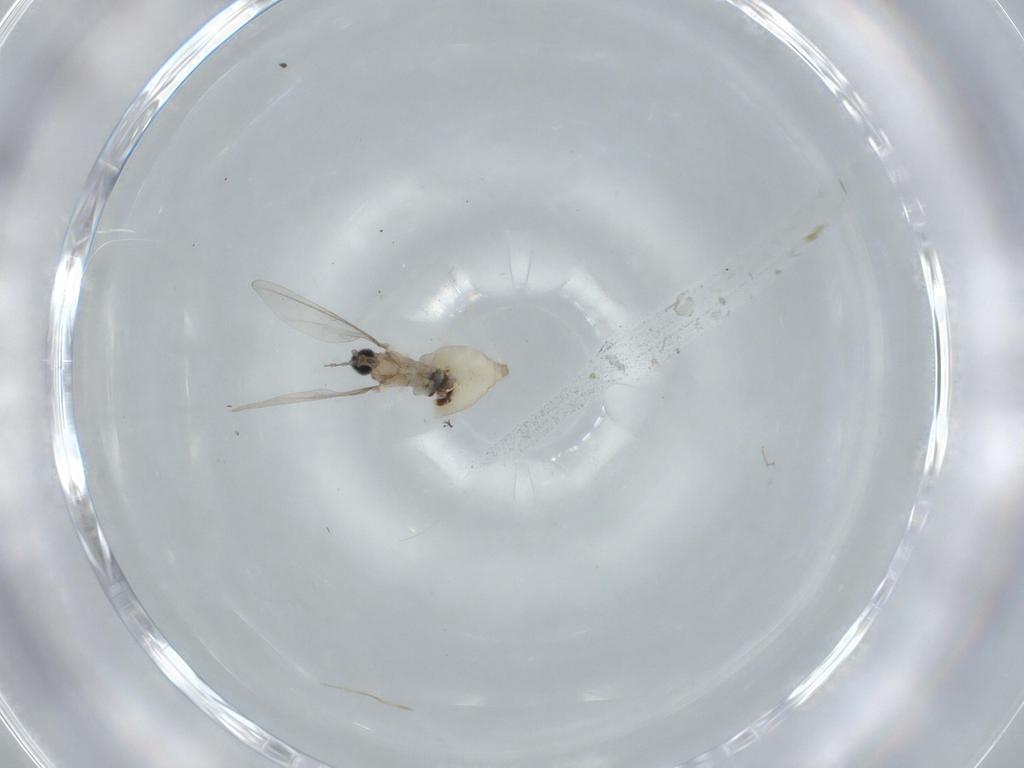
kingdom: Animalia
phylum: Arthropoda
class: Insecta
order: Diptera
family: Cecidomyiidae
